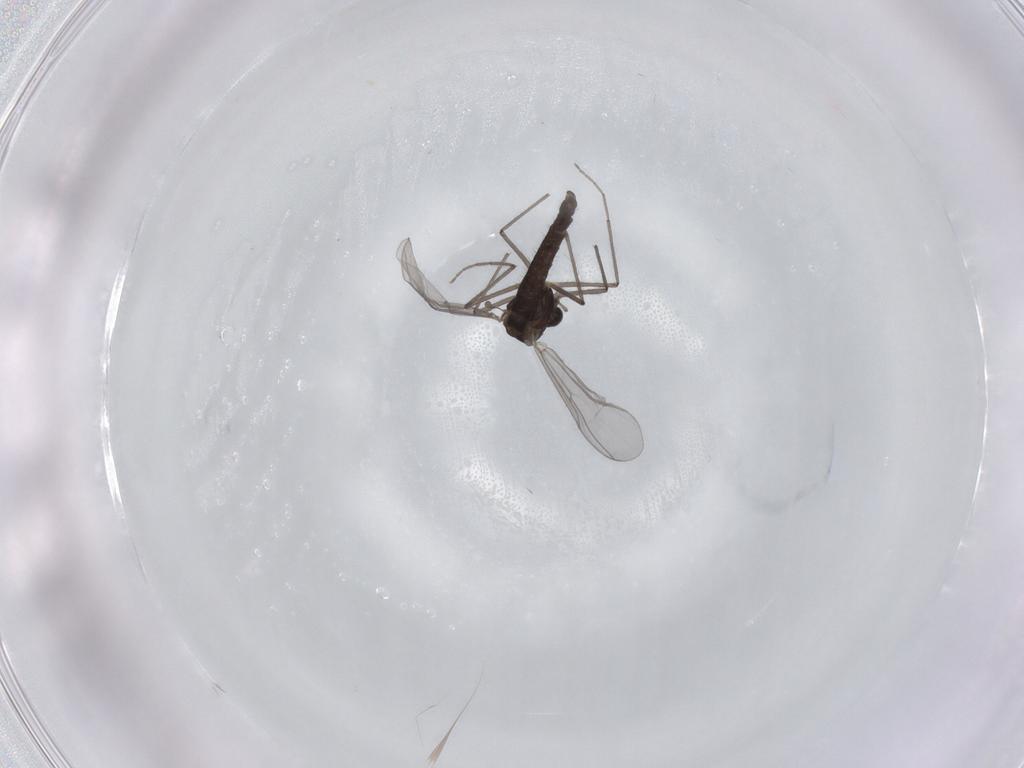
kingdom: Animalia
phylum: Arthropoda
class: Insecta
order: Diptera
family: Chironomidae
